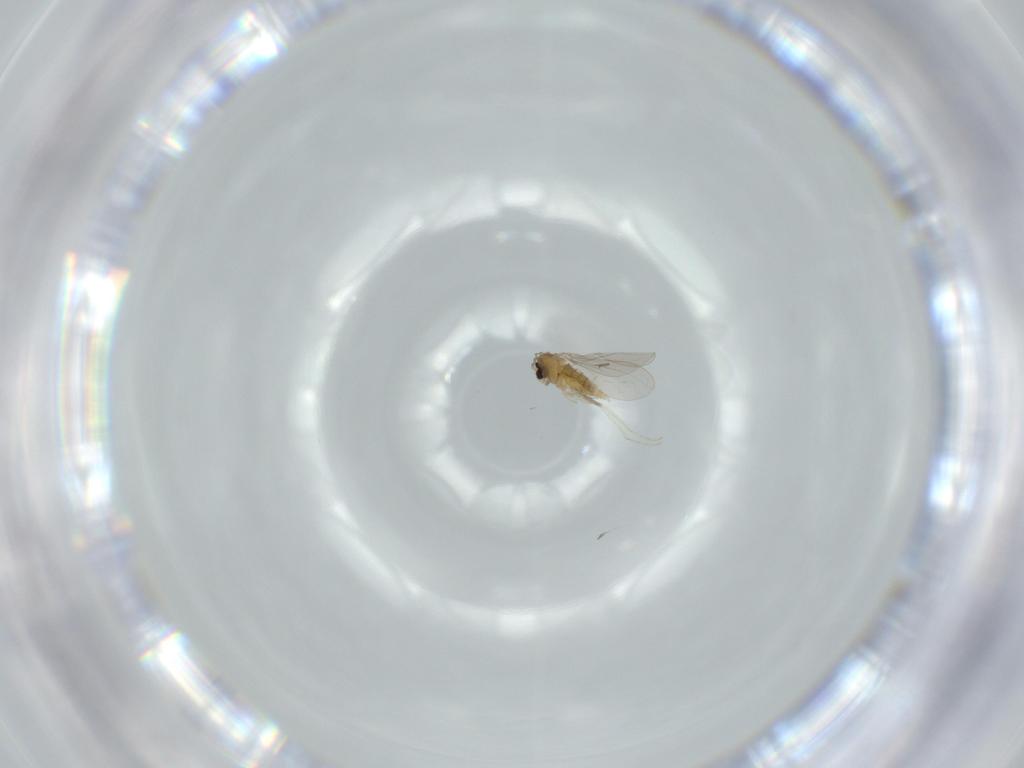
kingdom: Animalia
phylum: Arthropoda
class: Insecta
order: Diptera
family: Cecidomyiidae
